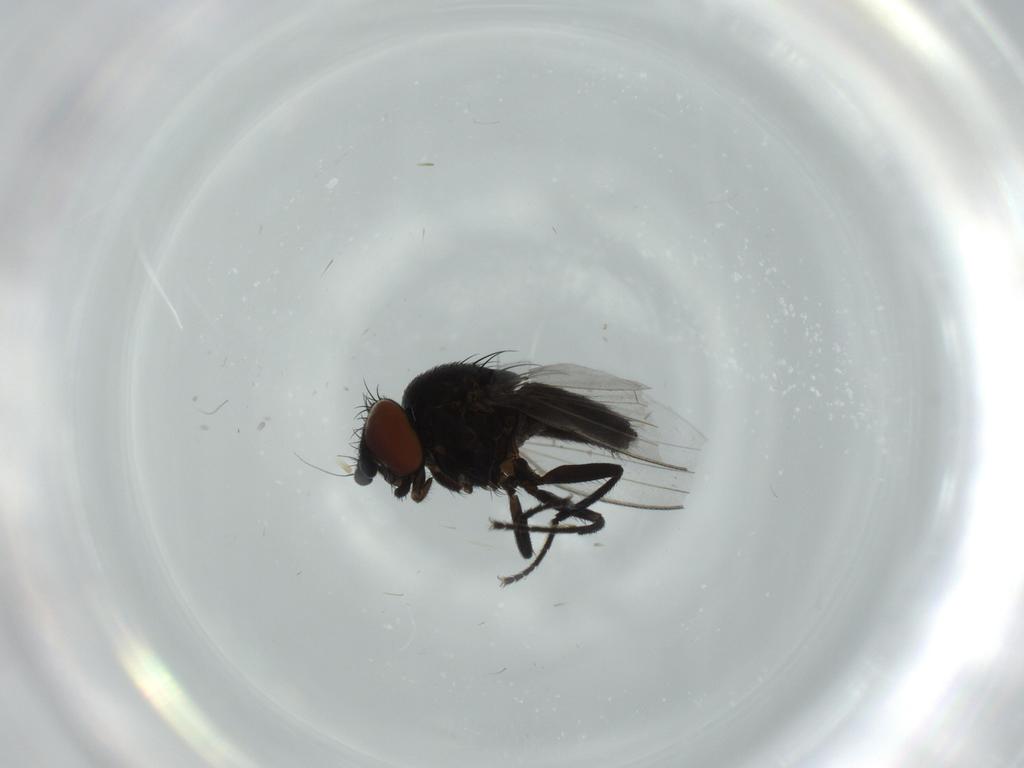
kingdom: Animalia
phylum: Arthropoda
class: Insecta
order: Diptera
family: Milichiidae
